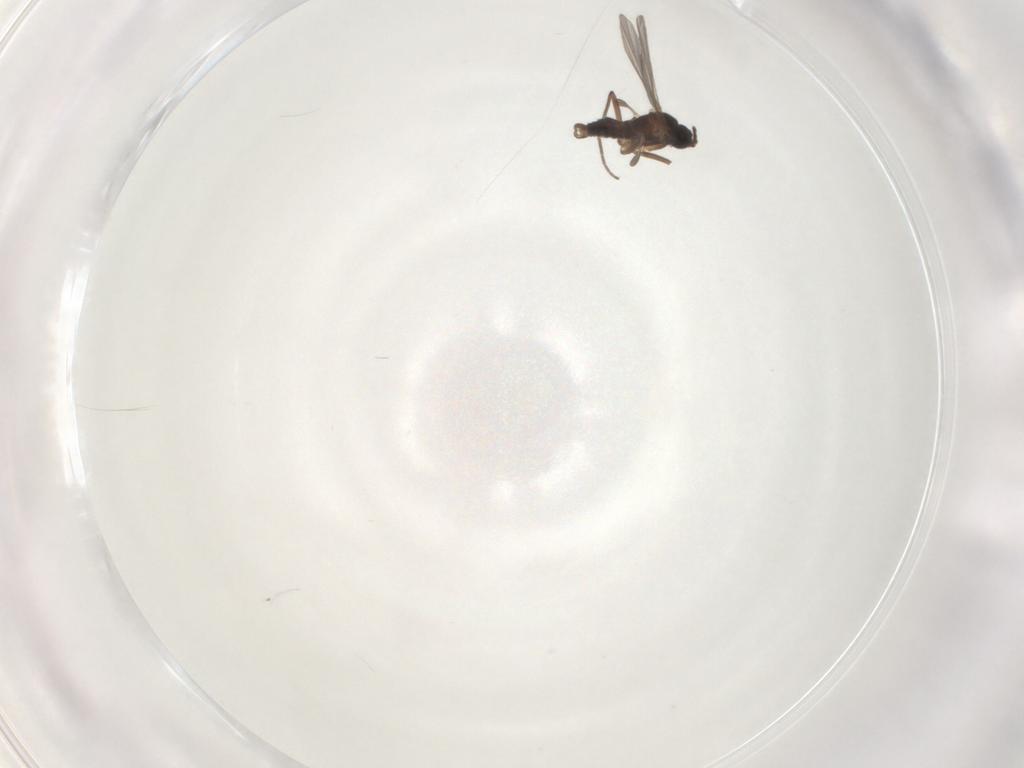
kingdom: Animalia
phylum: Arthropoda
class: Insecta
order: Diptera
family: Chironomidae
